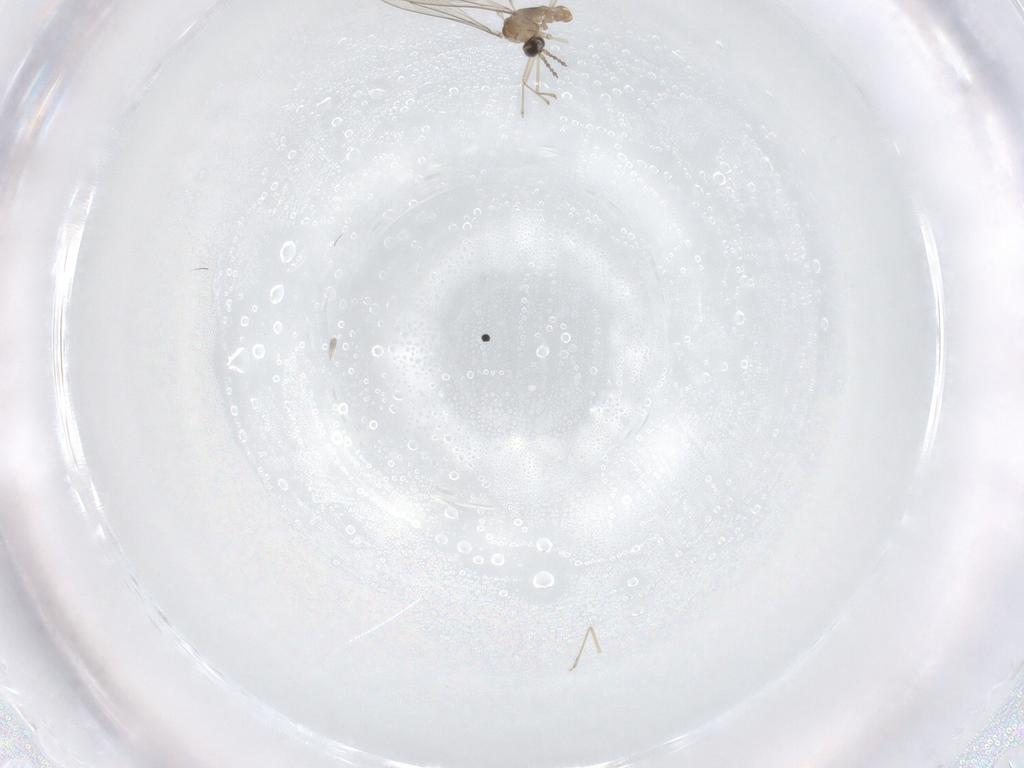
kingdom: Animalia
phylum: Arthropoda
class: Insecta
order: Diptera
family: Cecidomyiidae
